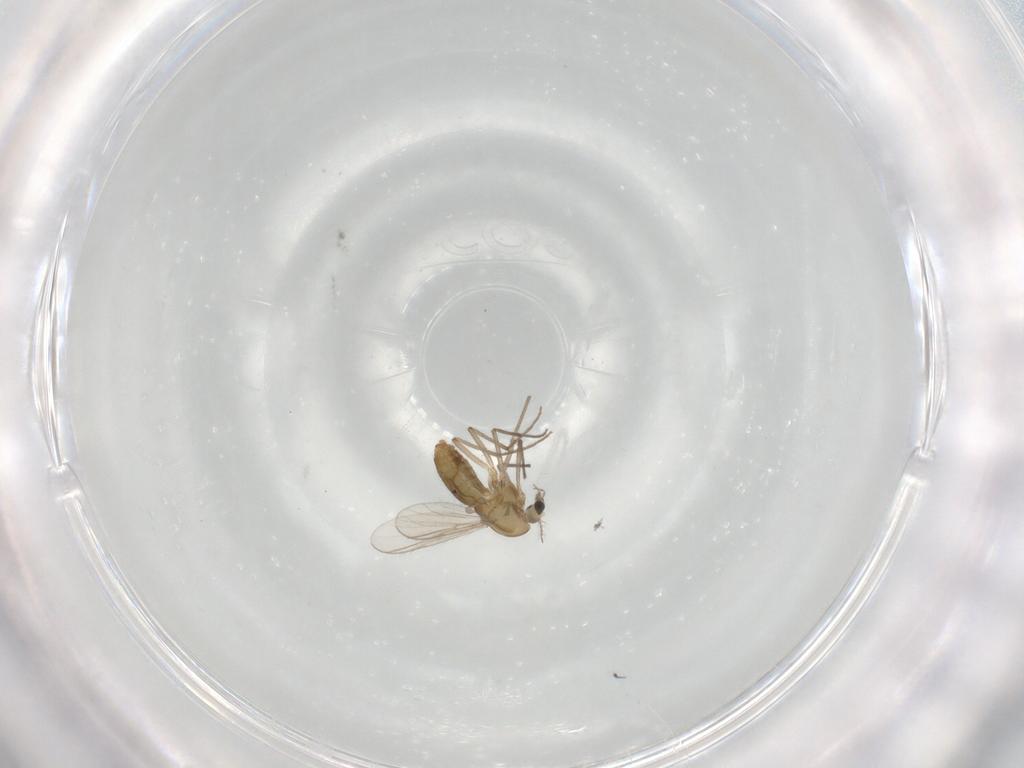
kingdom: Animalia
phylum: Arthropoda
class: Insecta
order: Diptera
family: Chironomidae
